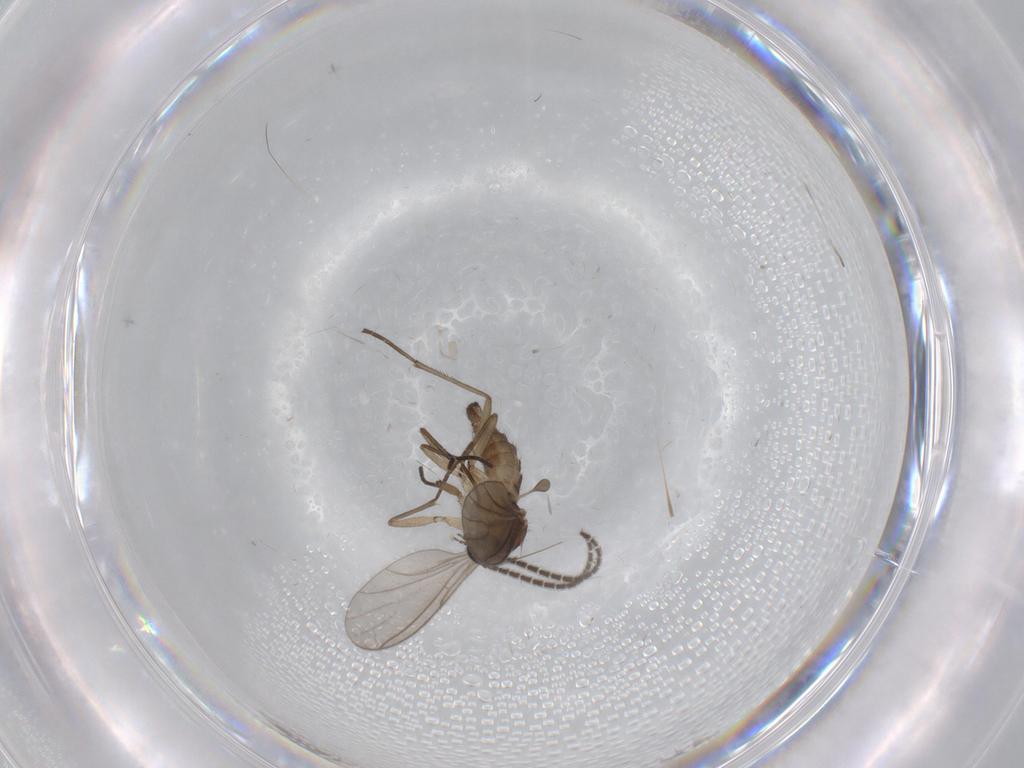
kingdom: Animalia
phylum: Arthropoda
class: Insecta
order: Diptera
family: Sciaridae
